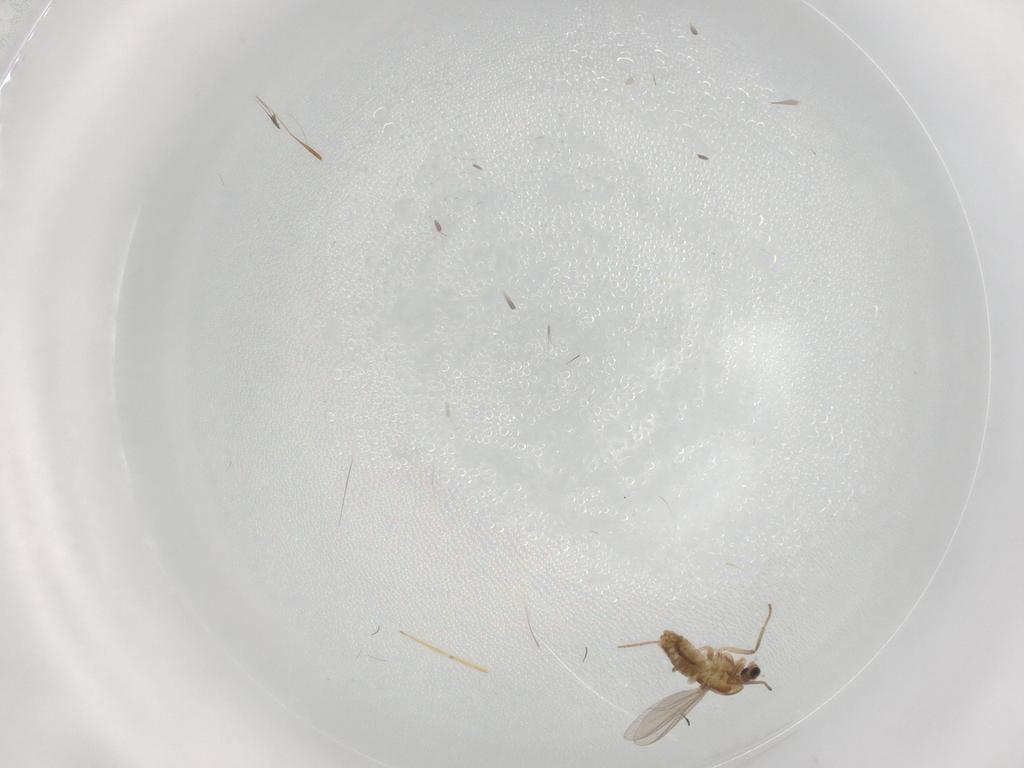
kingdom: Animalia
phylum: Arthropoda
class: Insecta
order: Diptera
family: Chironomidae
